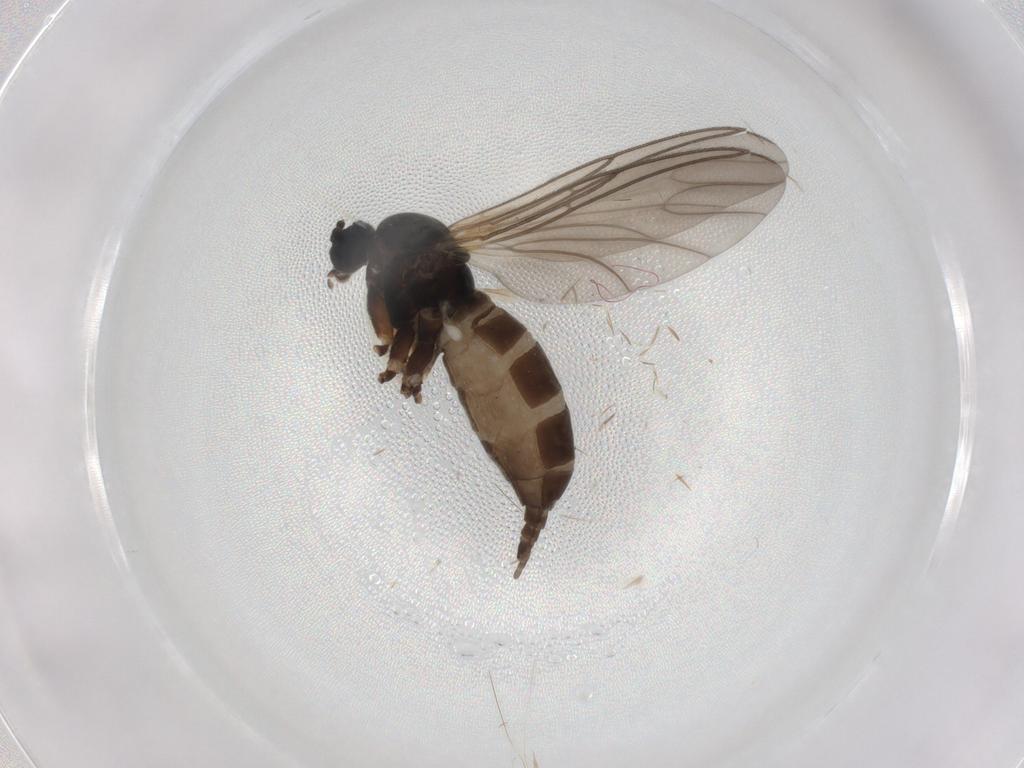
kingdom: Animalia
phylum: Arthropoda
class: Insecta
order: Diptera
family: Sciaridae
